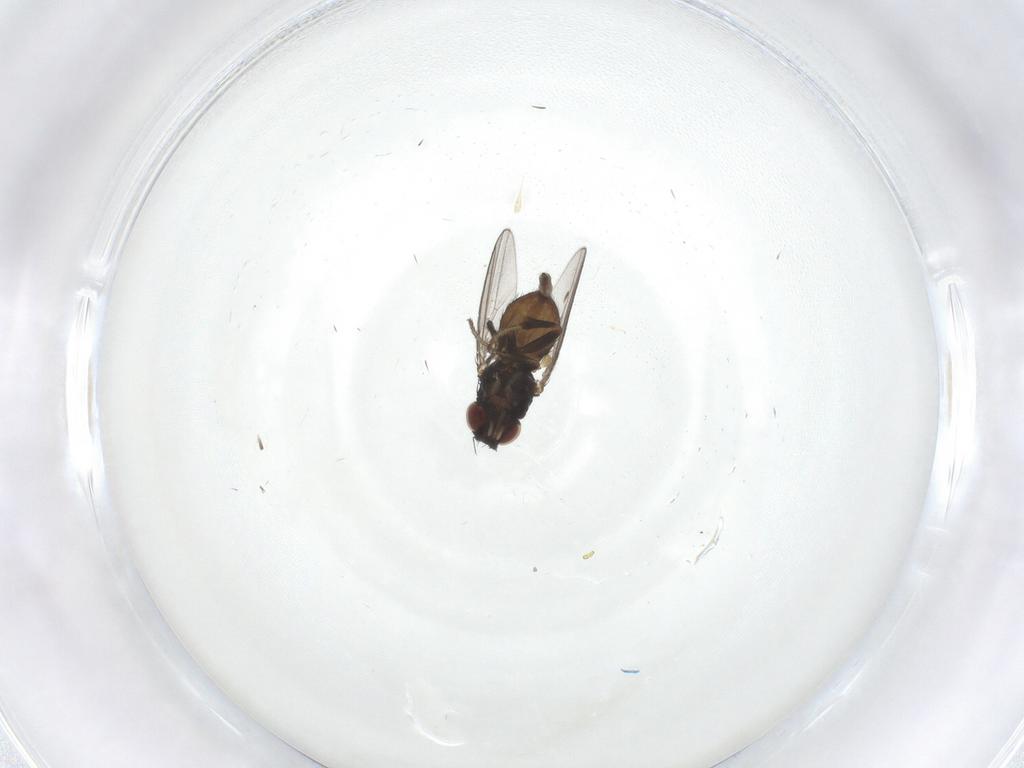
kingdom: Animalia
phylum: Arthropoda
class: Insecta
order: Diptera
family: Milichiidae
